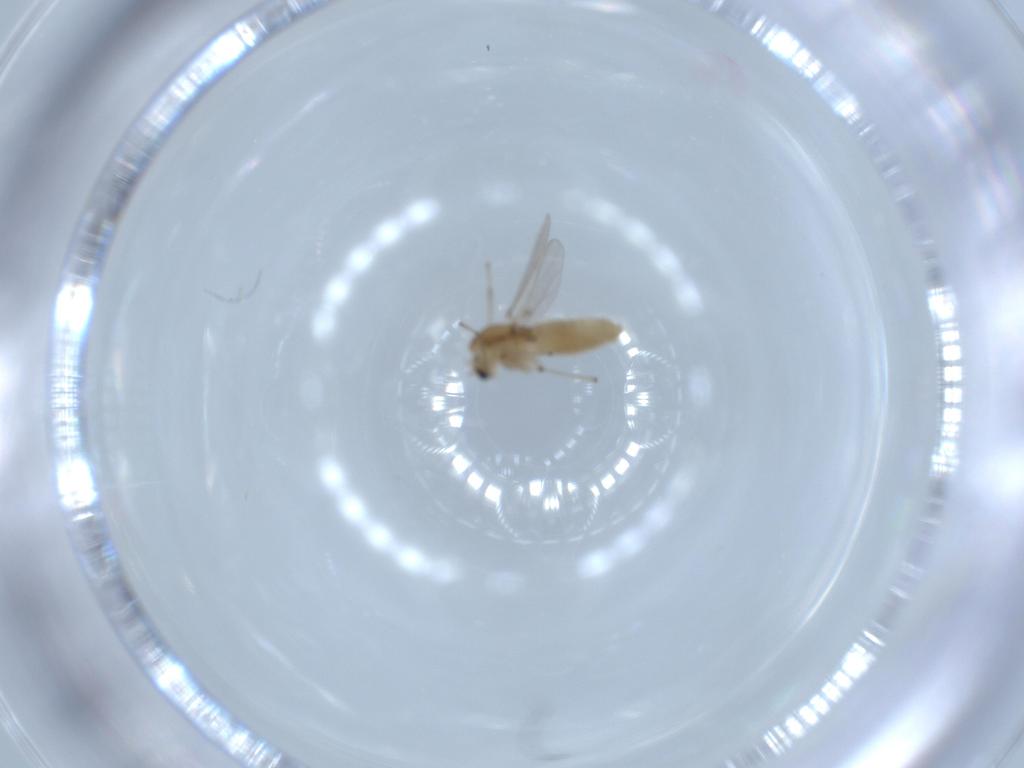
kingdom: Animalia
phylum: Arthropoda
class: Insecta
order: Diptera
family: Chironomidae
